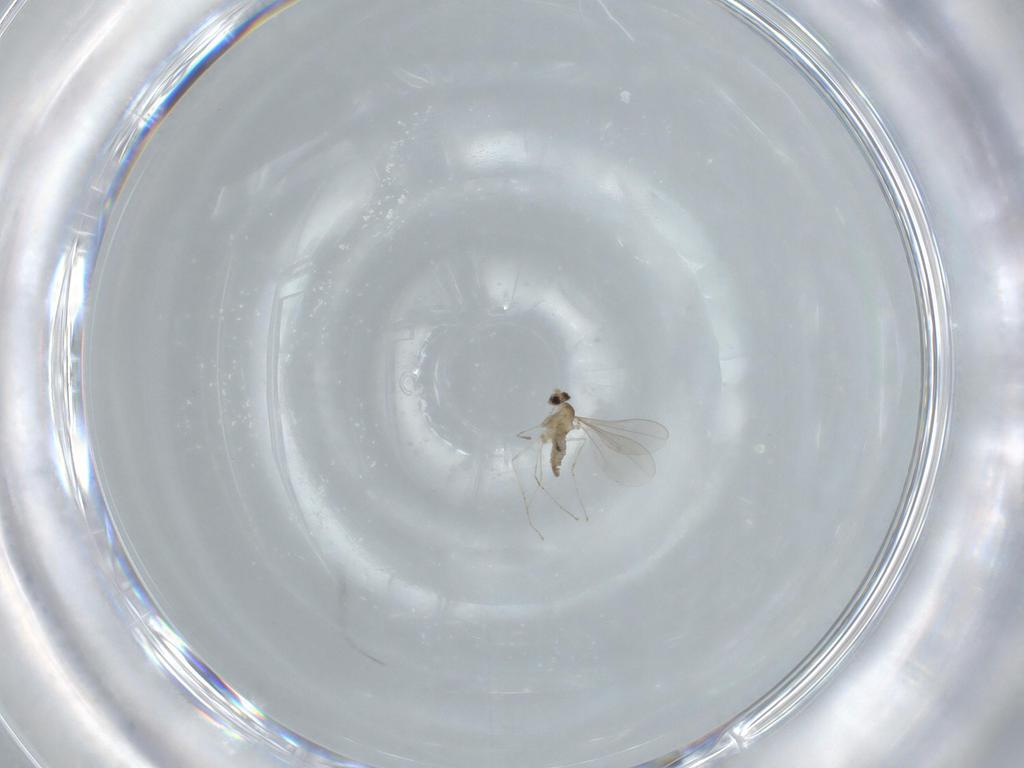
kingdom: Animalia
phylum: Arthropoda
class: Insecta
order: Diptera
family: Cecidomyiidae
